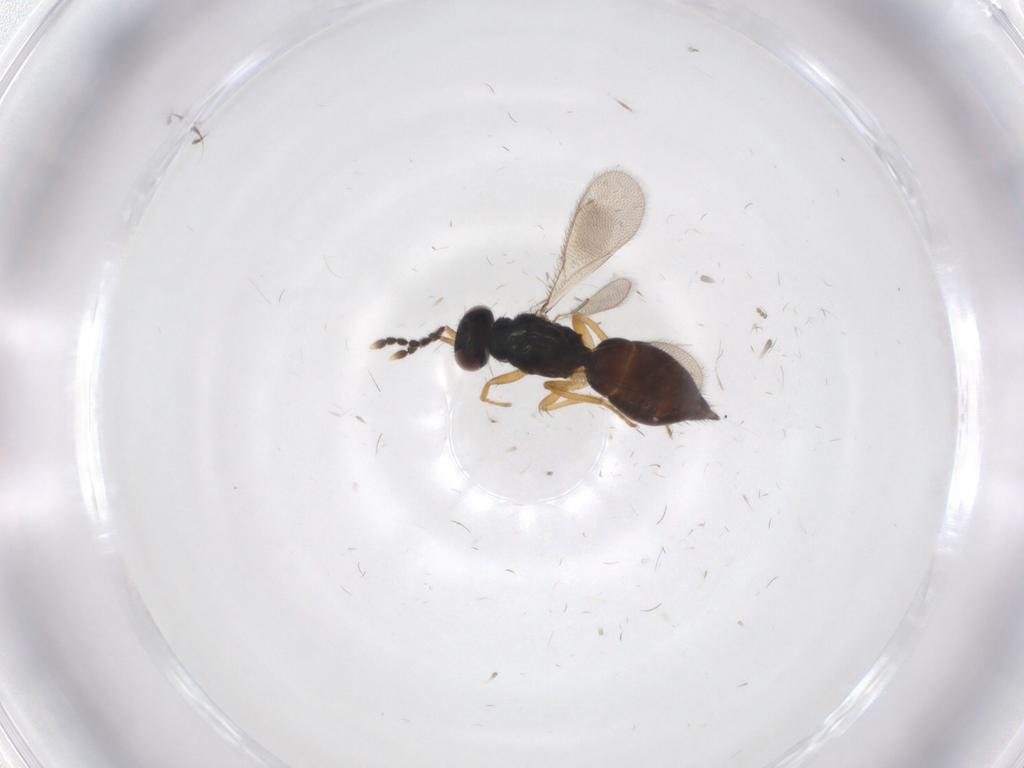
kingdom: Animalia
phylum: Arthropoda
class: Insecta
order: Hymenoptera
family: Eulophidae
